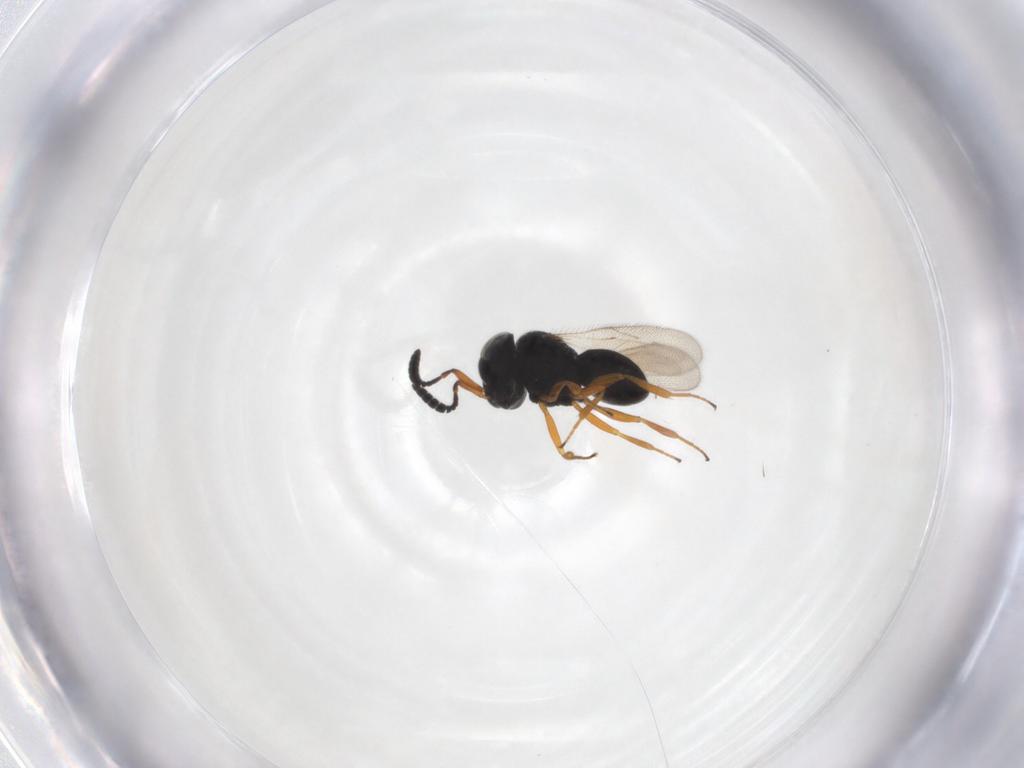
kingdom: Animalia
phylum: Arthropoda
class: Insecta
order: Hymenoptera
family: Scelionidae
